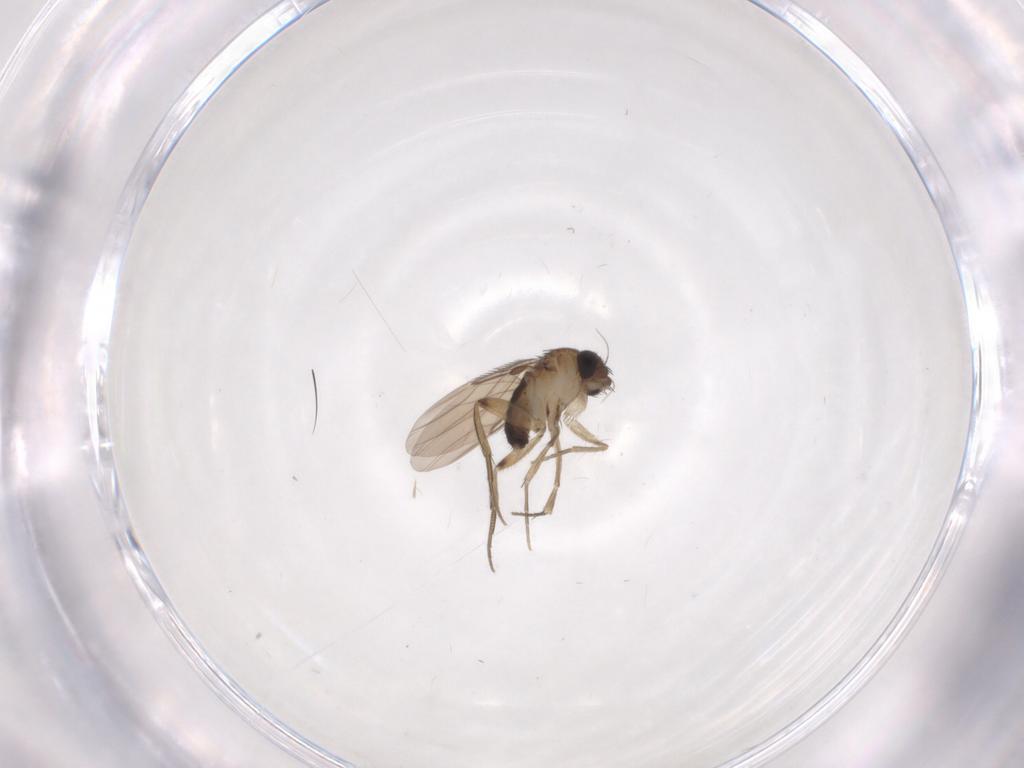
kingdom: Animalia
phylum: Arthropoda
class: Insecta
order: Diptera
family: Phoridae
